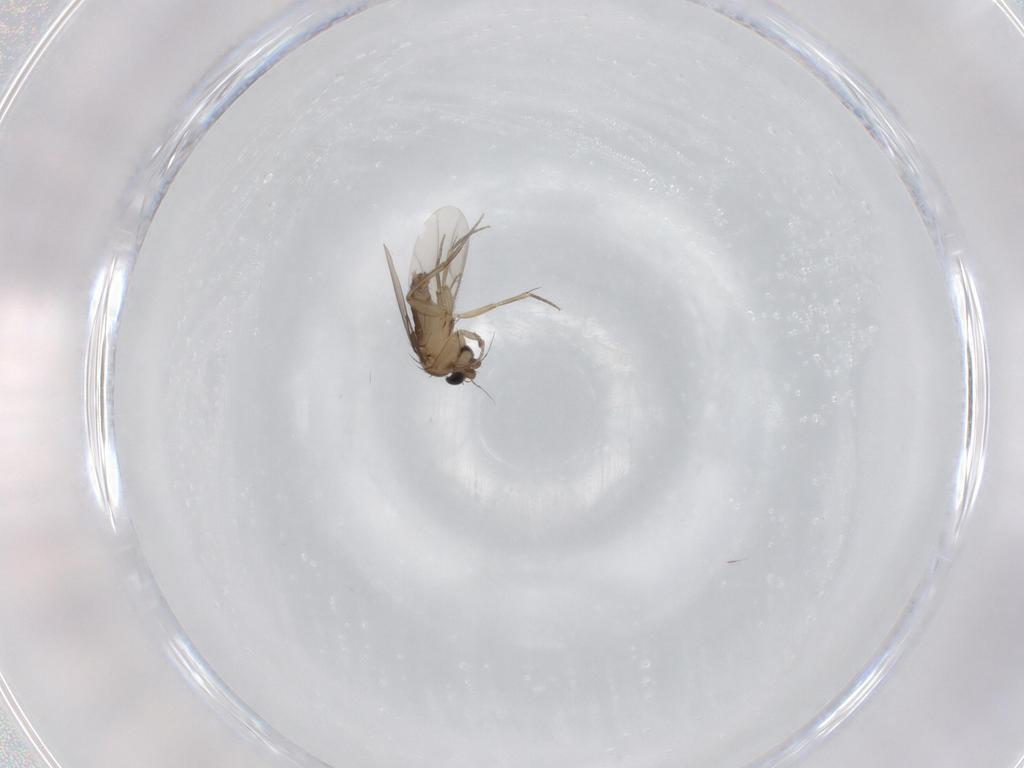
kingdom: Animalia
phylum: Arthropoda
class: Insecta
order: Diptera
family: Phoridae
